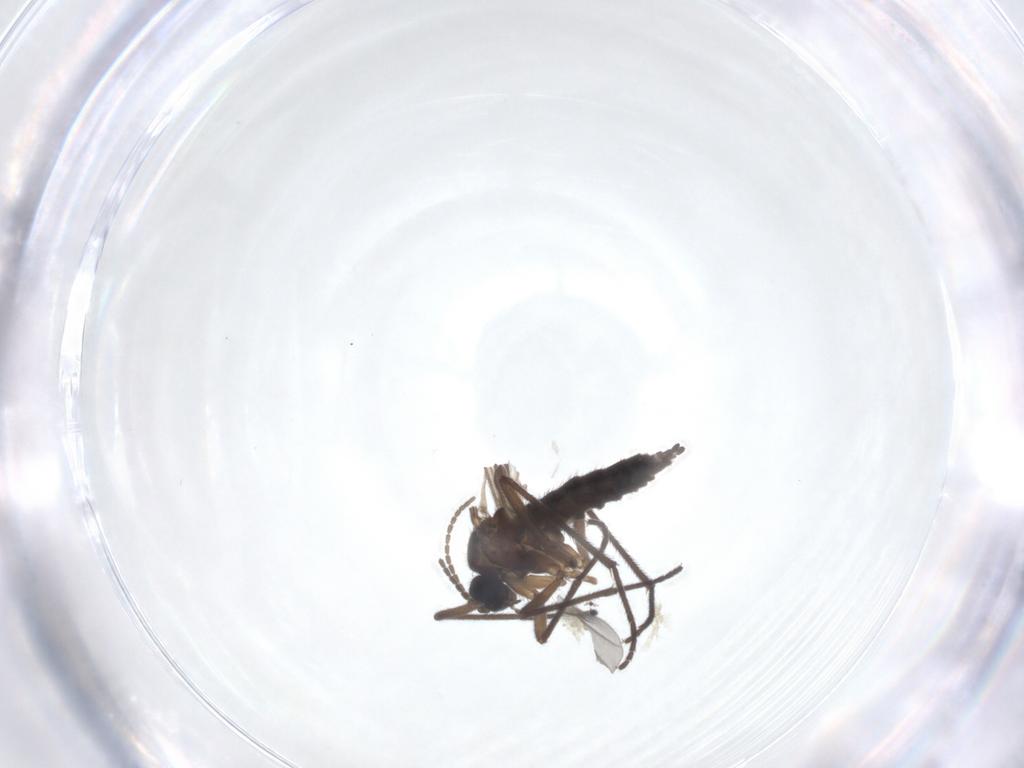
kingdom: Animalia
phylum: Arthropoda
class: Insecta
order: Diptera
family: Sciaridae
